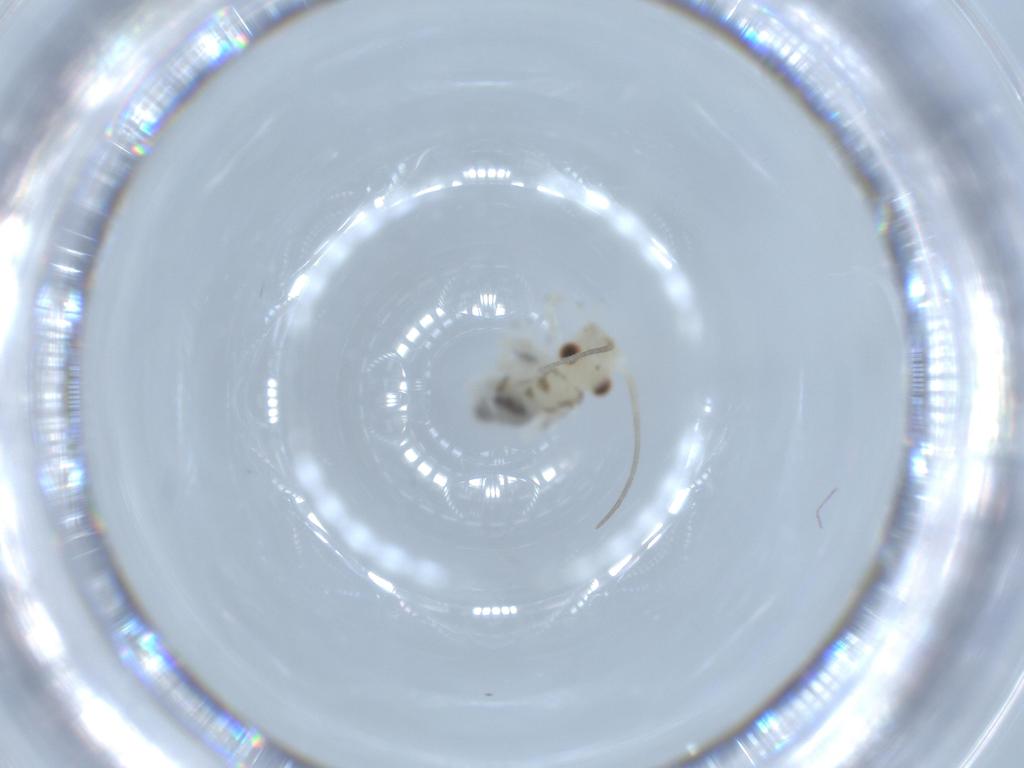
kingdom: Animalia
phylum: Arthropoda
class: Insecta
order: Psocodea
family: Caeciliusidae
